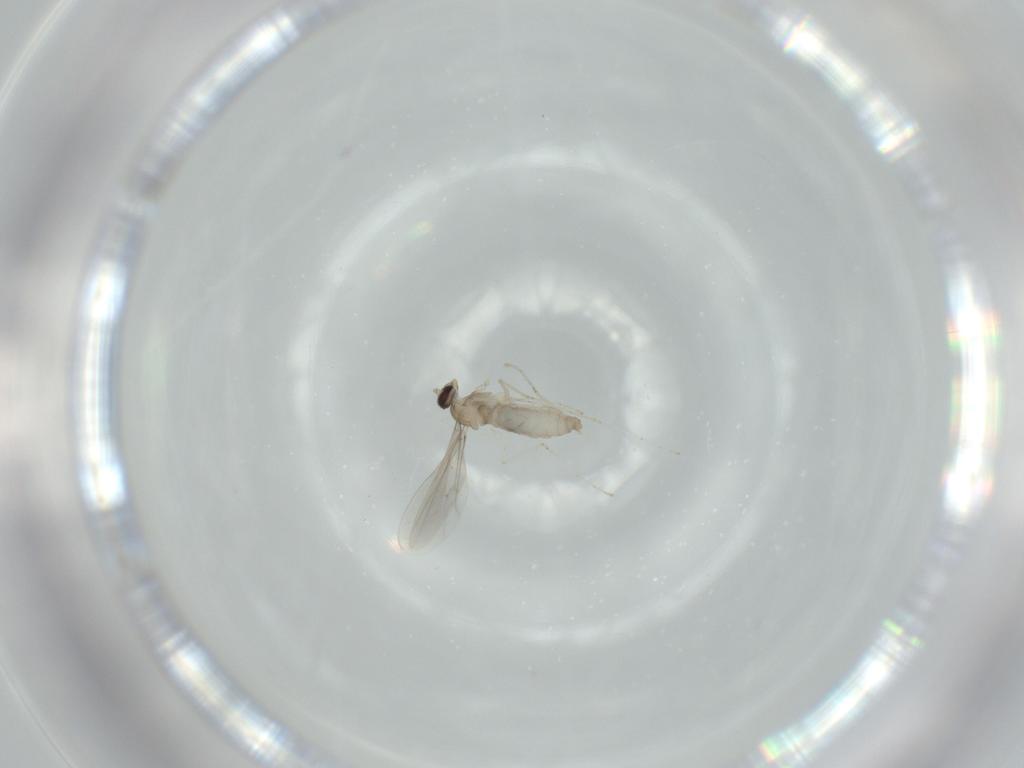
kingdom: Animalia
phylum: Arthropoda
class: Insecta
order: Diptera
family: Cecidomyiidae
